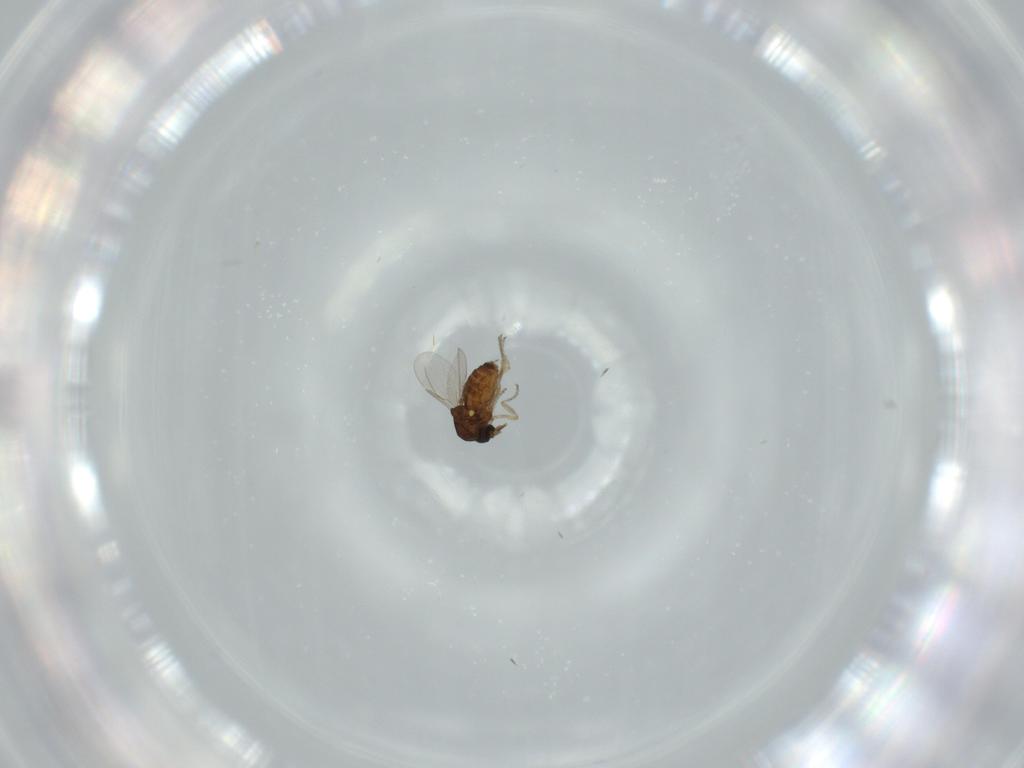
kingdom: Animalia
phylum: Arthropoda
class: Insecta
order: Diptera
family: Ceratopogonidae
